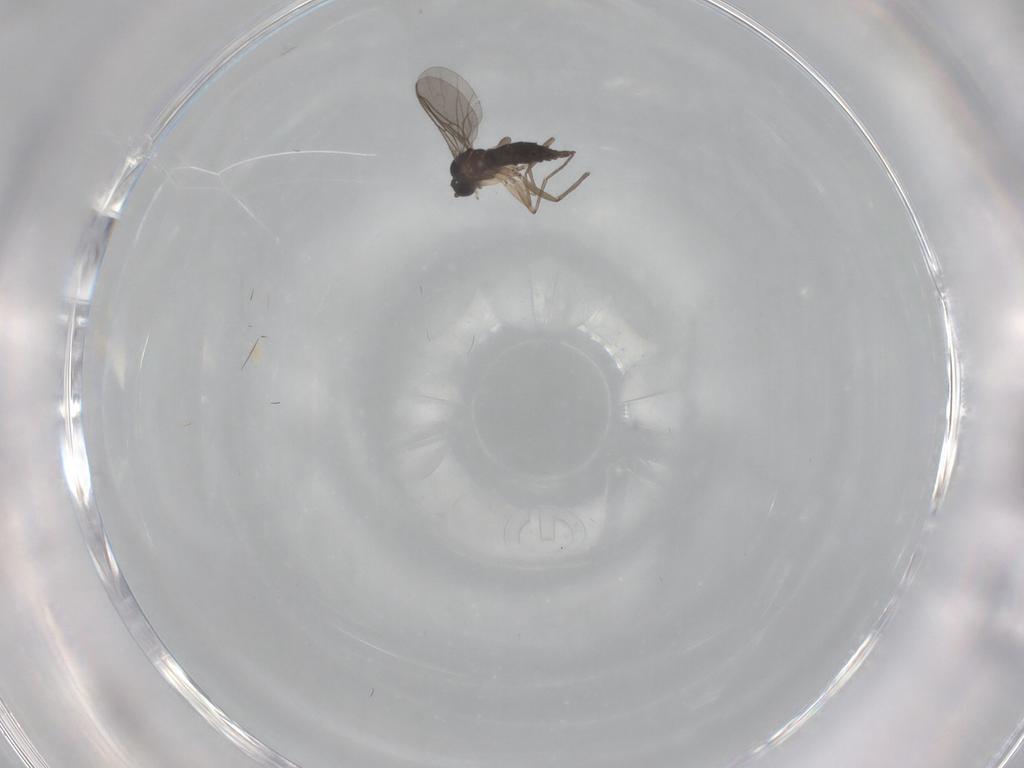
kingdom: Animalia
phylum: Arthropoda
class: Insecta
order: Diptera
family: Sciaridae
